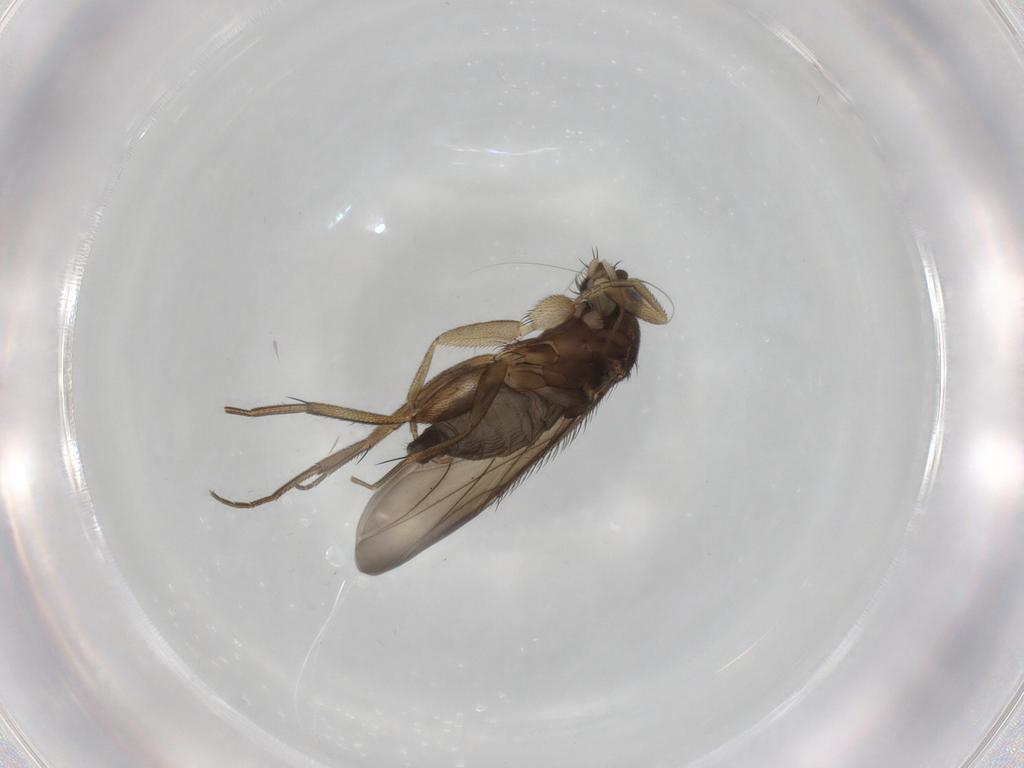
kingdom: Animalia
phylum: Arthropoda
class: Insecta
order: Diptera
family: Phoridae
